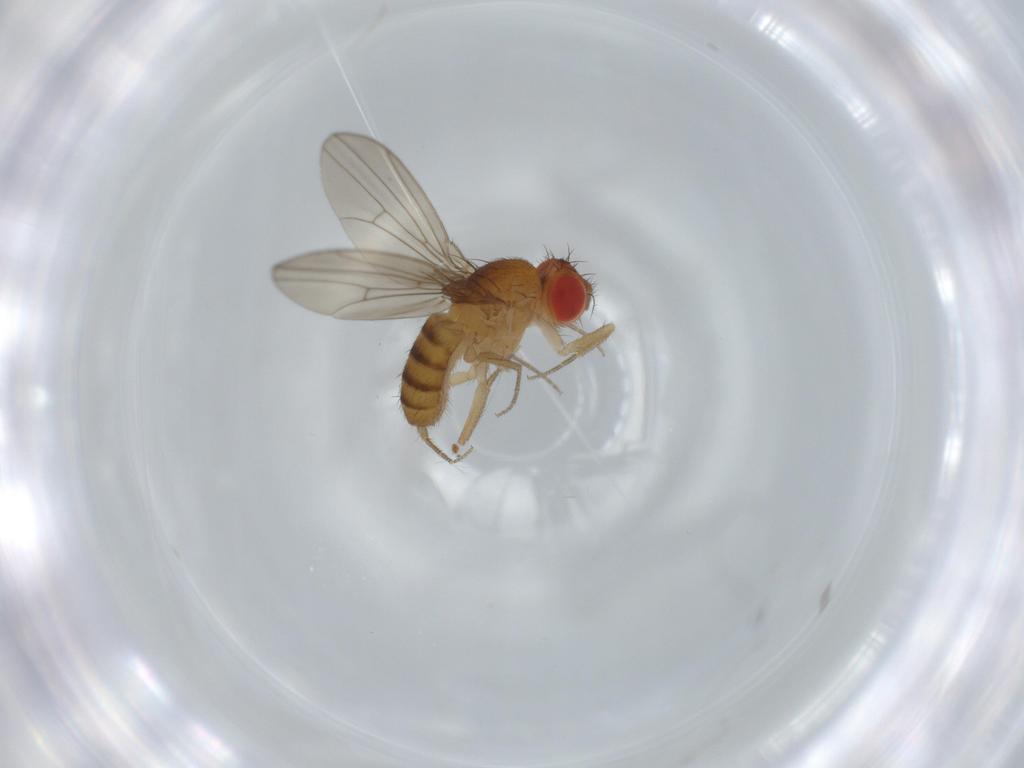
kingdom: Animalia
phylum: Arthropoda
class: Insecta
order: Diptera
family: Drosophilidae
